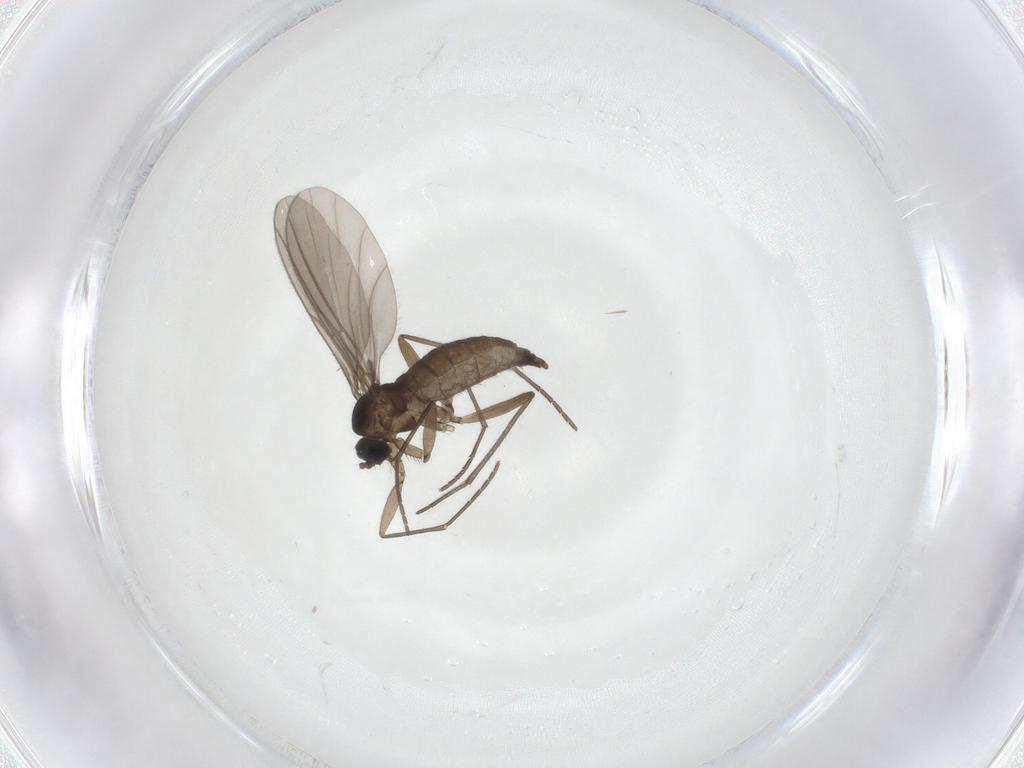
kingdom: Animalia
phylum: Arthropoda
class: Insecta
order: Diptera
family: Sciaridae
